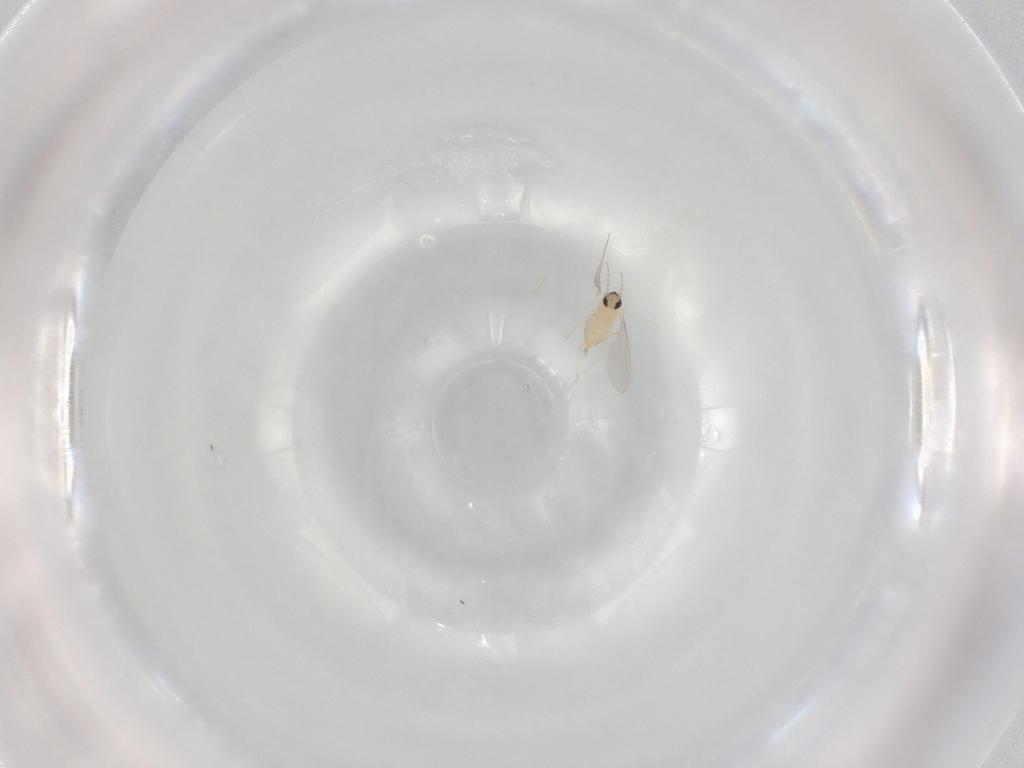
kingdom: Animalia
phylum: Arthropoda
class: Insecta
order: Diptera
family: Cecidomyiidae
